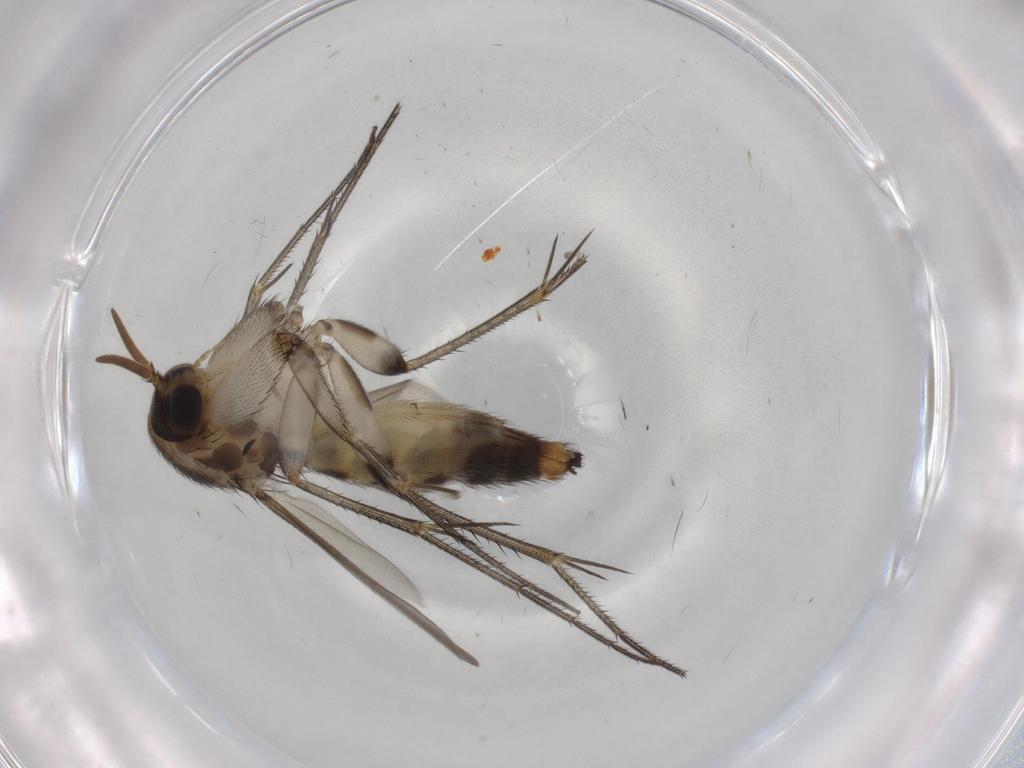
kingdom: Animalia
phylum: Arthropoda
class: Insecta
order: Diptera
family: Mycetophilidae
